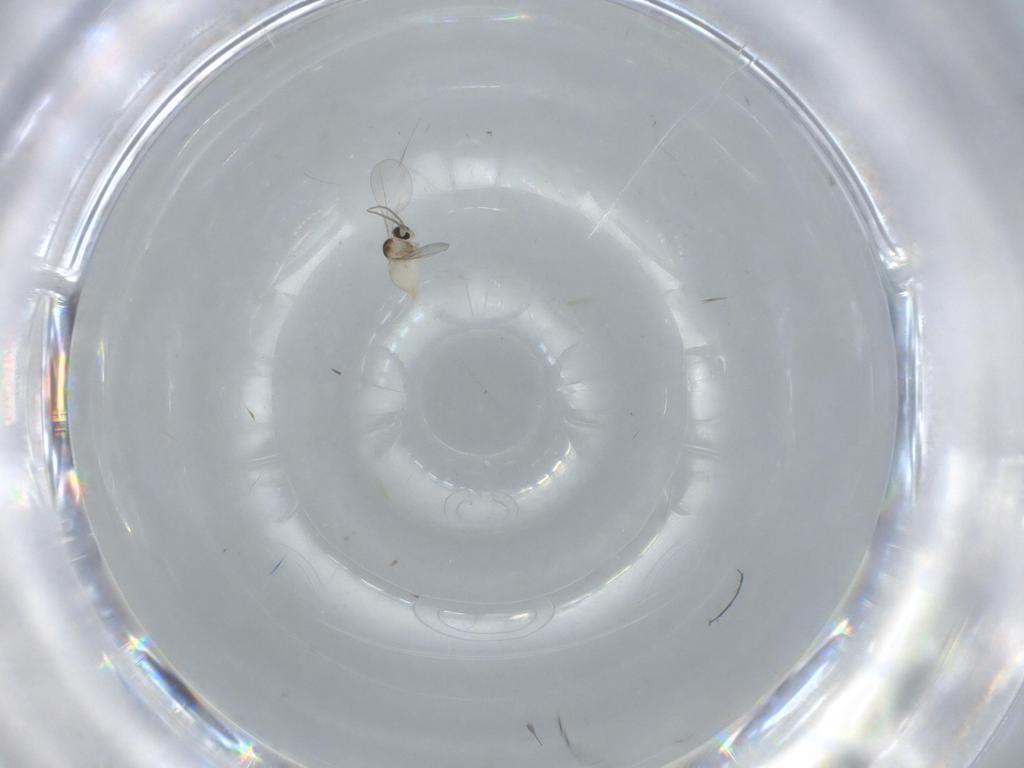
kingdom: Animalia
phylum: Arthropoda
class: Insecta
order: Diptera
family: Cecidomyiidae
